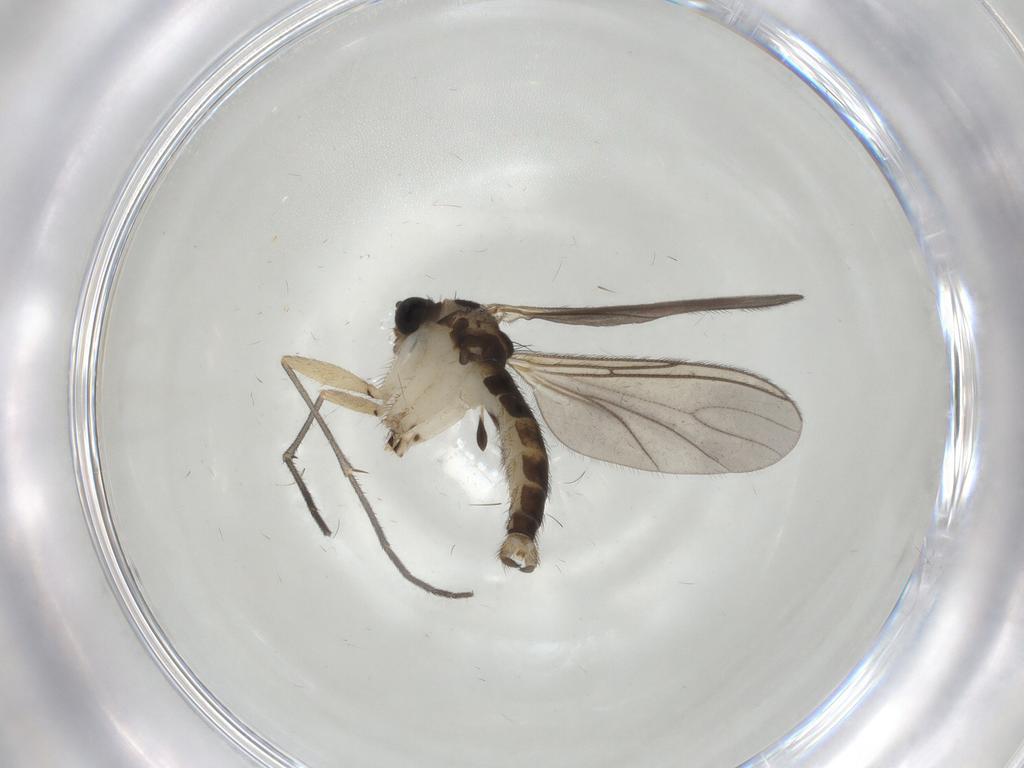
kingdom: Animalia
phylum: Arthropoda
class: Insecta
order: Diptera
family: Sciaridae
